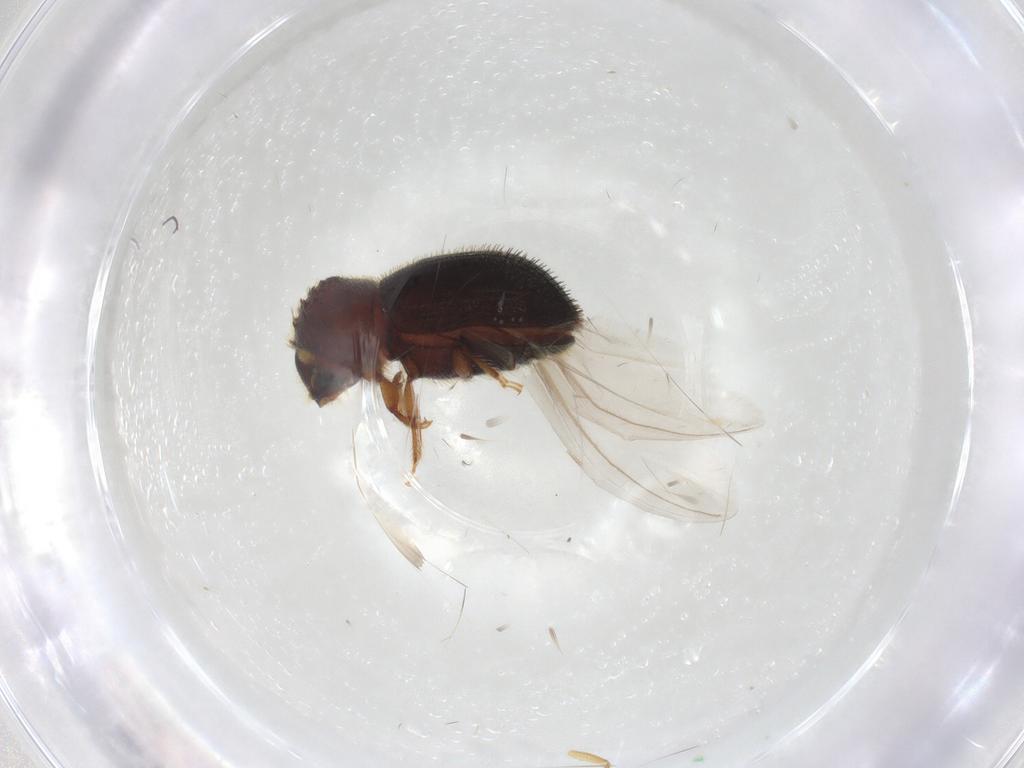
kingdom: Animalia
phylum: Arthropoda
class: Insecta
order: Coleoptera
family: Curculionidae
